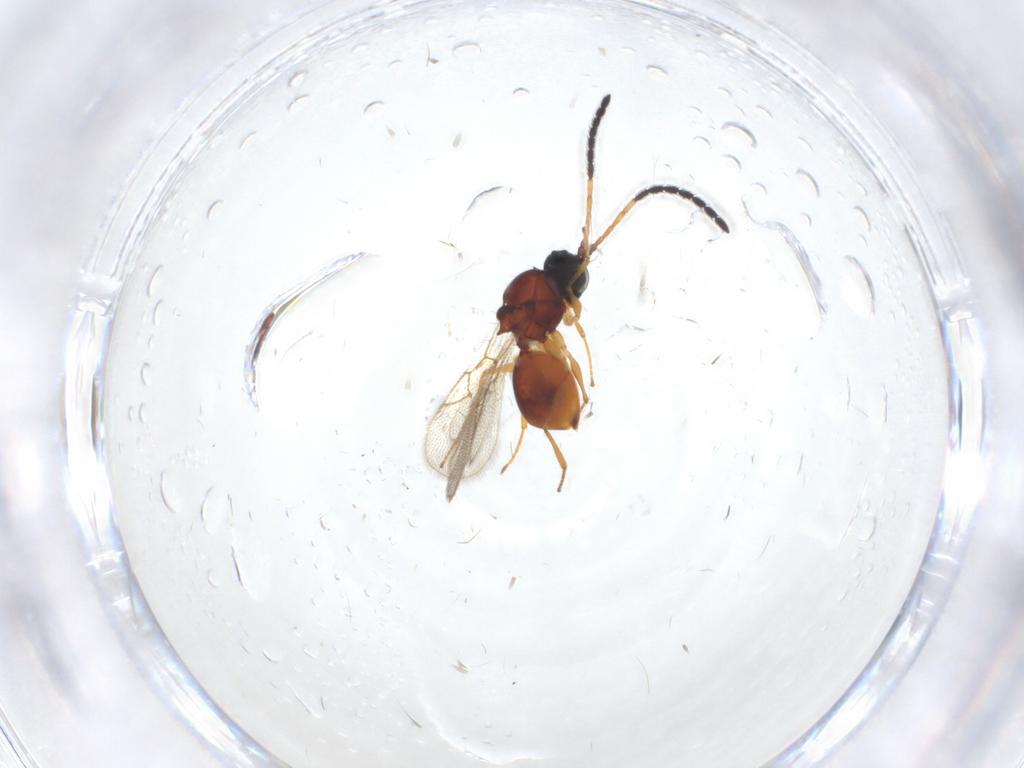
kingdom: Animalia
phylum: Arthropoda
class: Insecta
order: Hymenoptera
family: Figitidae
